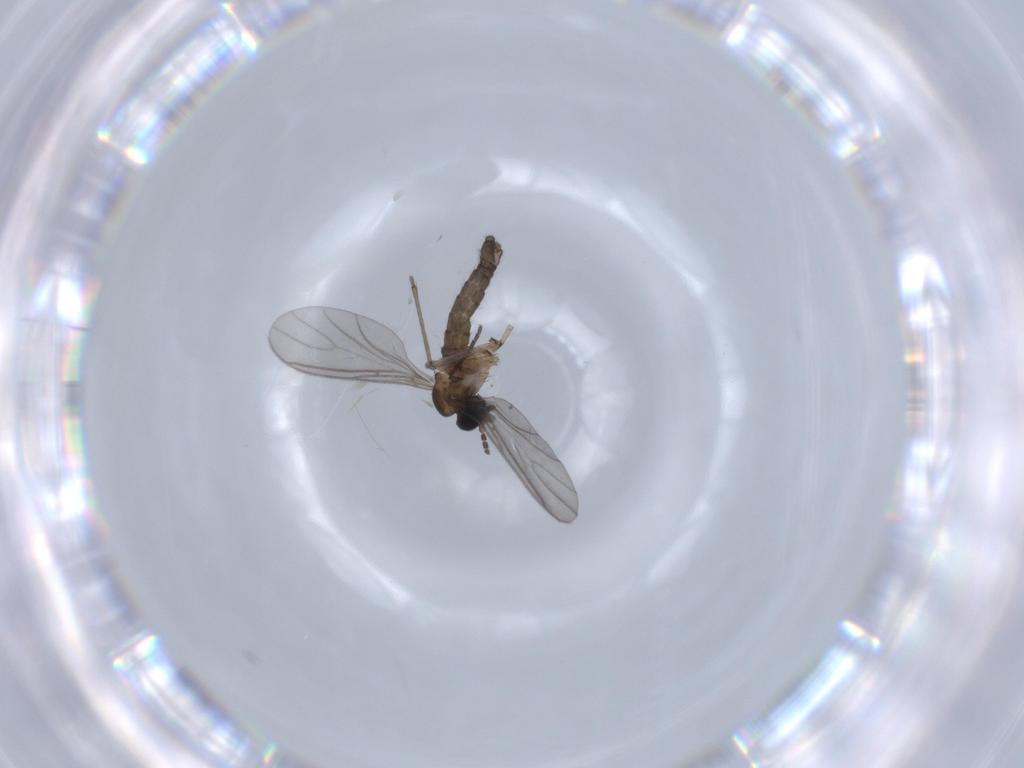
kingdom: Animalia
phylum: Arthropoda
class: Insecta
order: Diptera
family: Sciaridae
